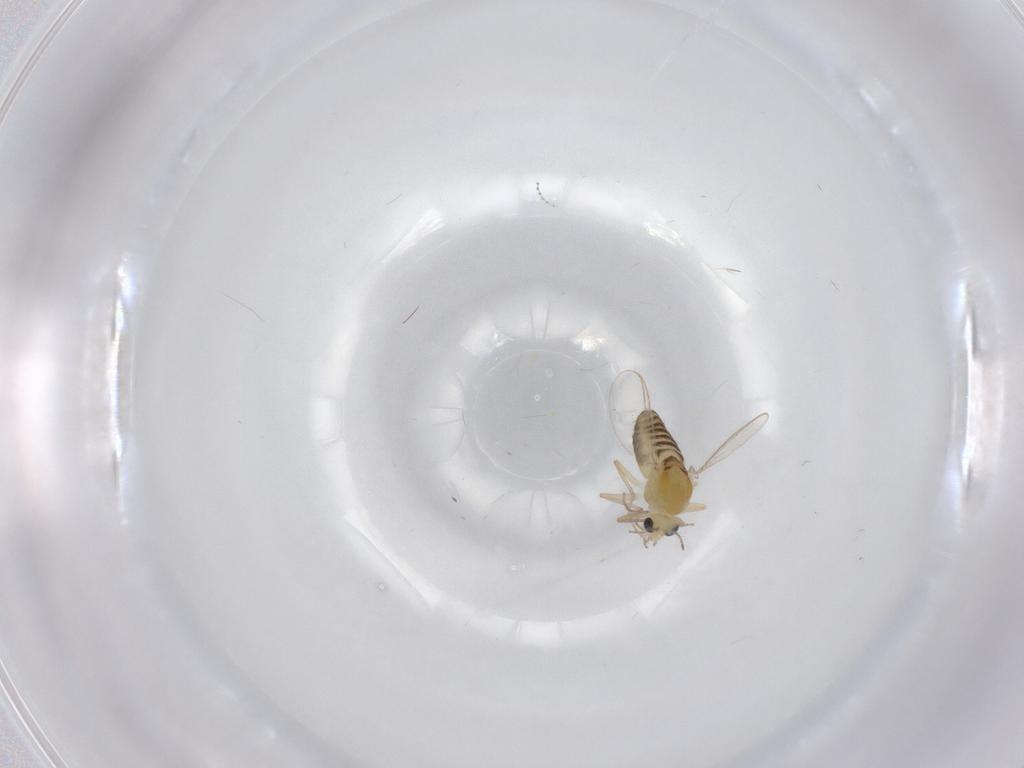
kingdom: Animalia
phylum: Arthropoda
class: Insecta
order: Diptera
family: Chironomidae
